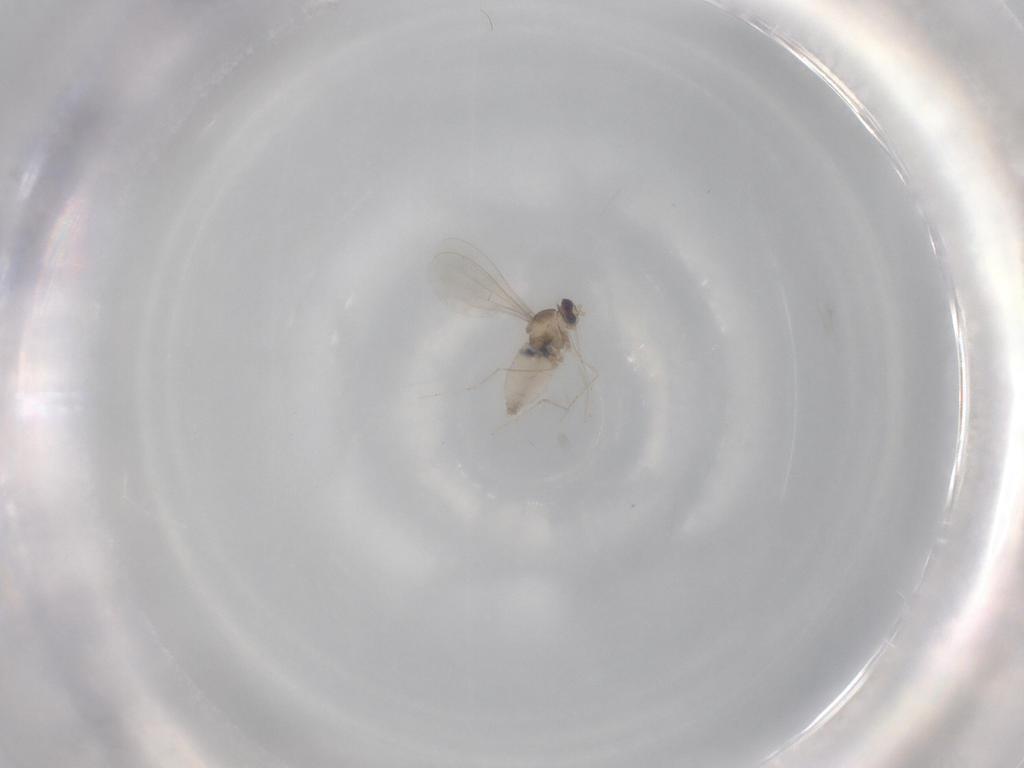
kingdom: Animalia
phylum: Arthropoda
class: Insecta
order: Diptera
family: Cecidomyiidae
